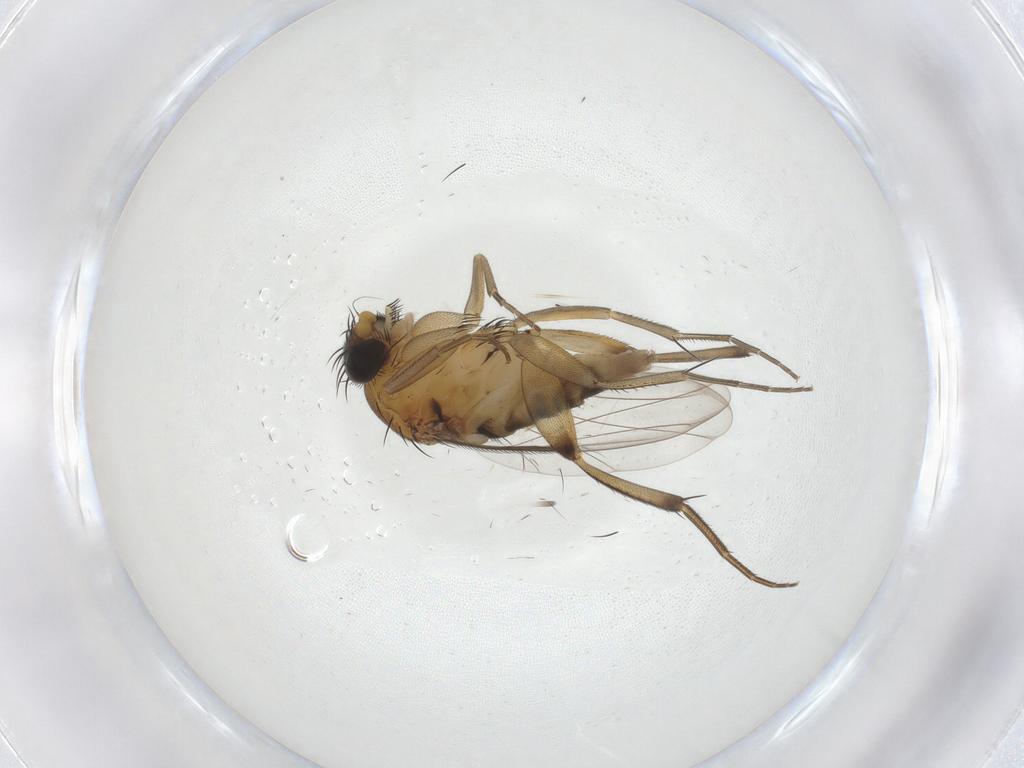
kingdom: Animalia
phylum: Arthropoda
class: Insecta
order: Diptera
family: Phoridae
